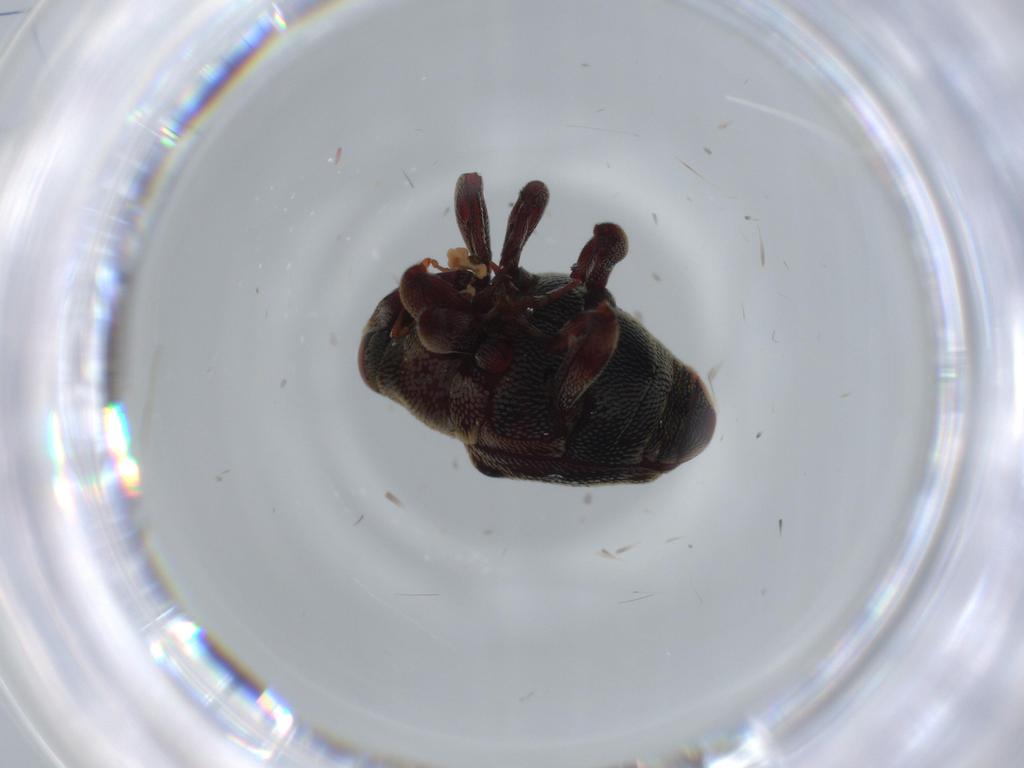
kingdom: Animalia
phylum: Arthropoda
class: Insecta
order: Coleoptera
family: Curculionidae
